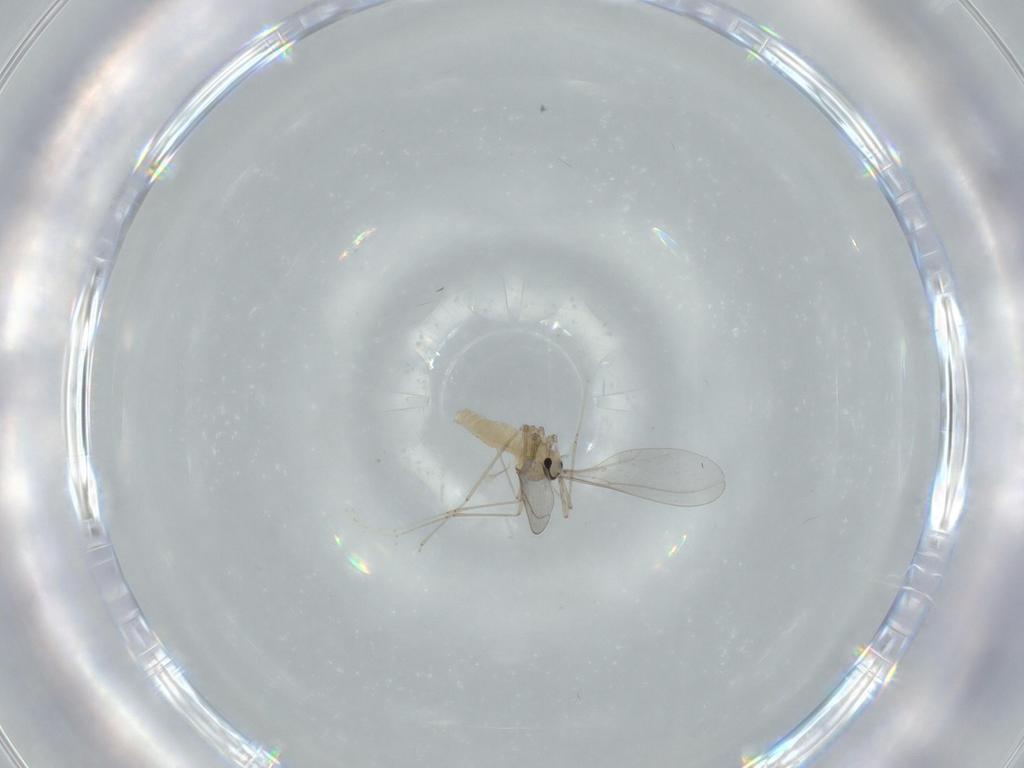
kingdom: Animalia
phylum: Arthropoda
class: Insecta
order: Diptera
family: Cecidomyiidae
